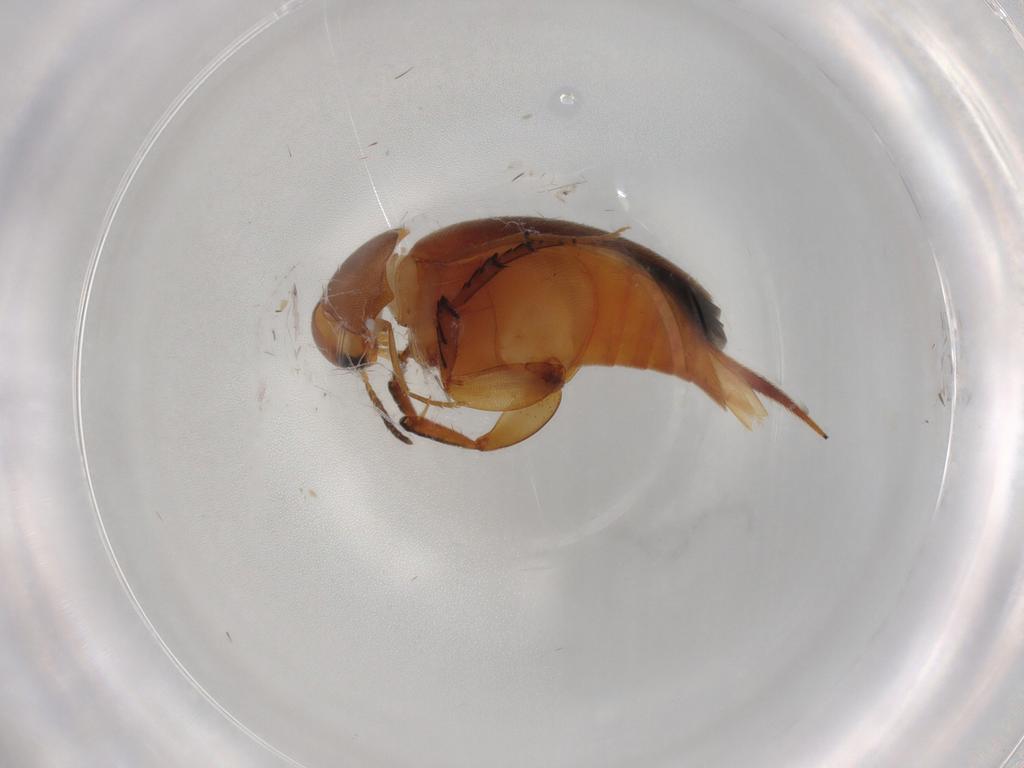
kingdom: Animalia
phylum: Arthropoda
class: Insecta
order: Coleoptera
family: Mordellidae
